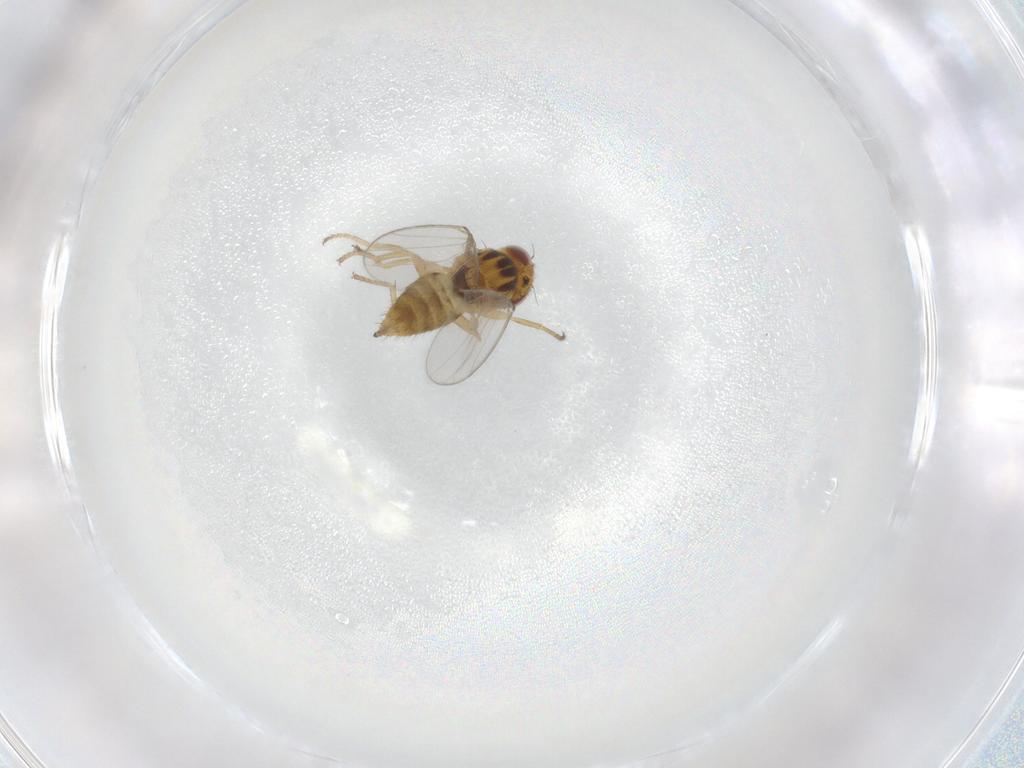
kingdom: Animalia
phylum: Arthropoda
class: Insecta
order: Diptera
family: Chloropidae
